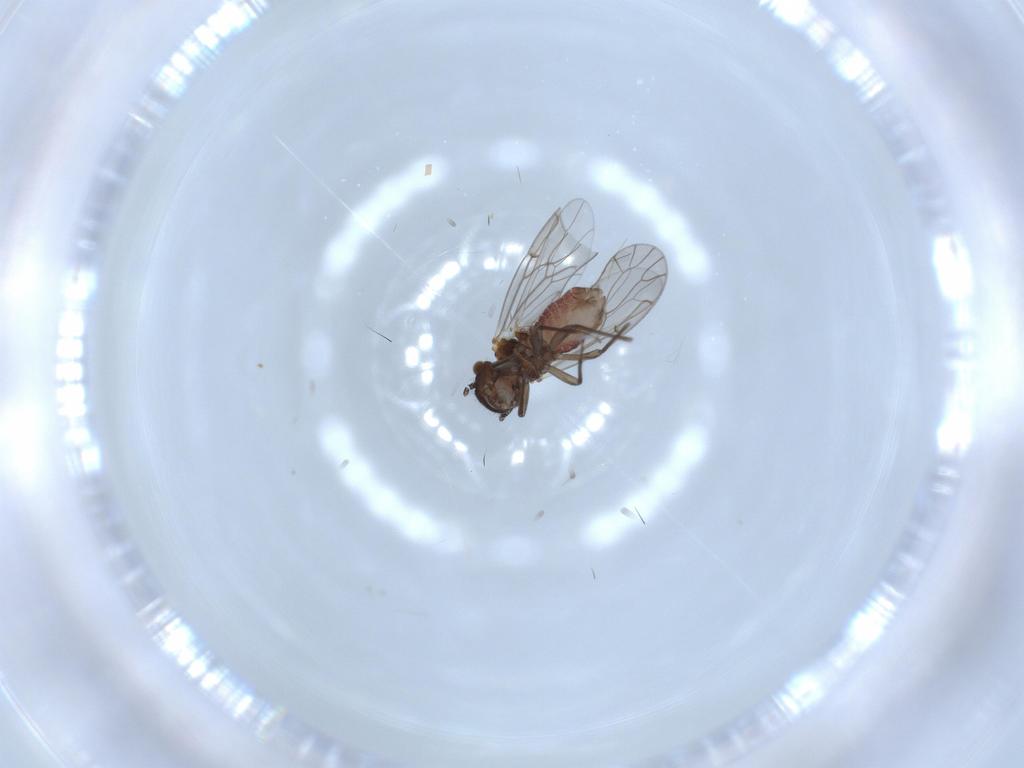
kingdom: Animalia
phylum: Arthropoda
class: Insecta
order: Psocodea
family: Ectopsocidae
